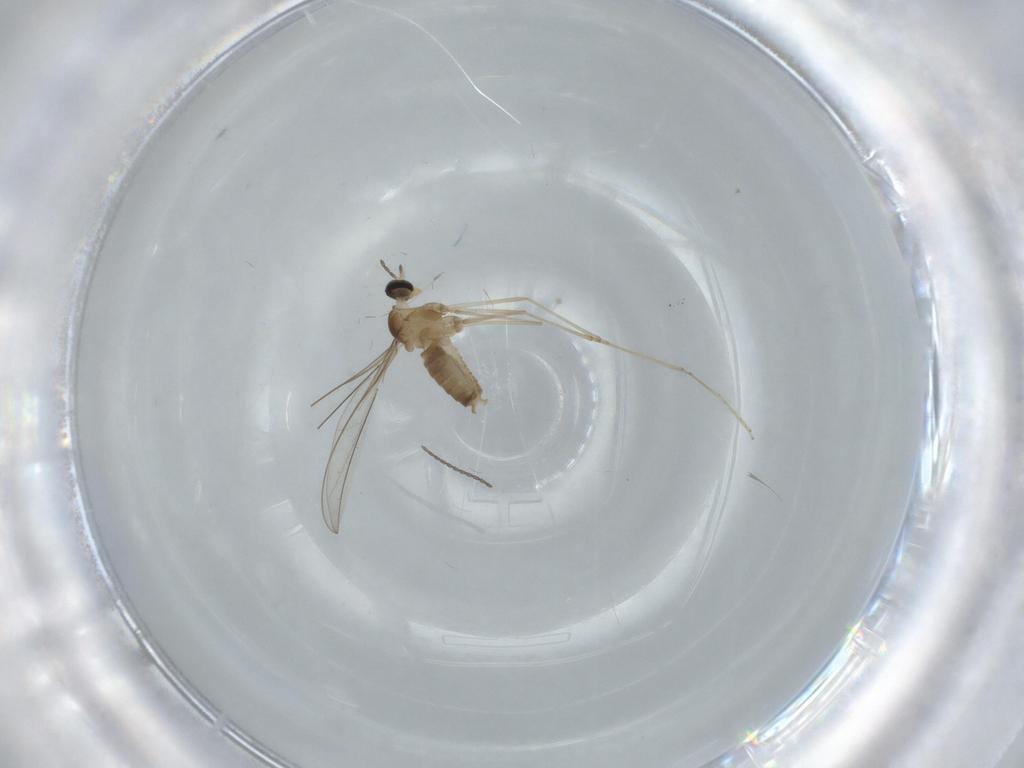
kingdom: Animalia
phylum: Arthropoda
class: Insecta
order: Diptera
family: Cecidomyiidae
